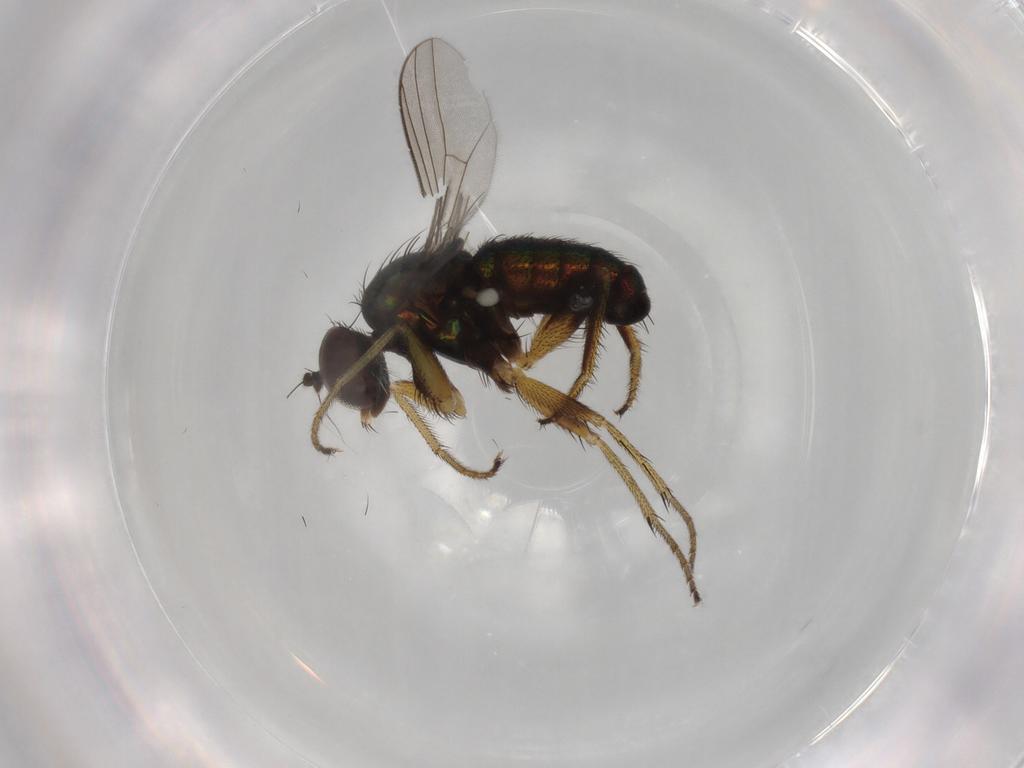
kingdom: Animalia
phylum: Arthropoda
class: Insecta
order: Diptera
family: Dolichopodidae
